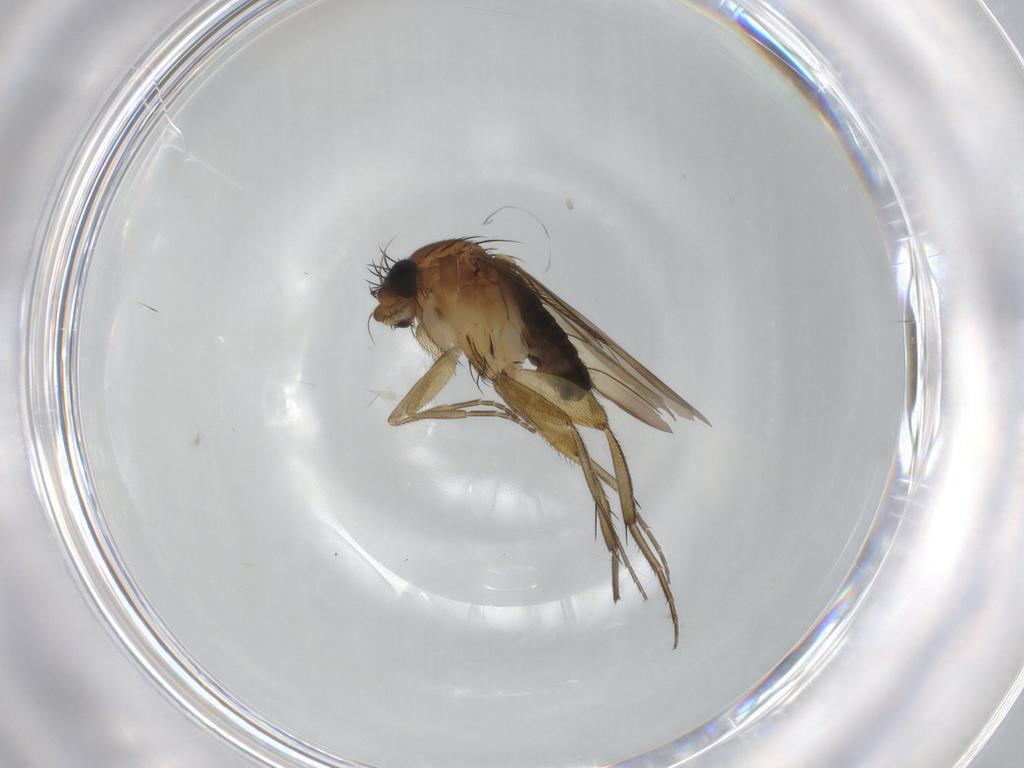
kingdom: Animalia
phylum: Arthropoda
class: Insecta
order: Diptera
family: Phoridae
